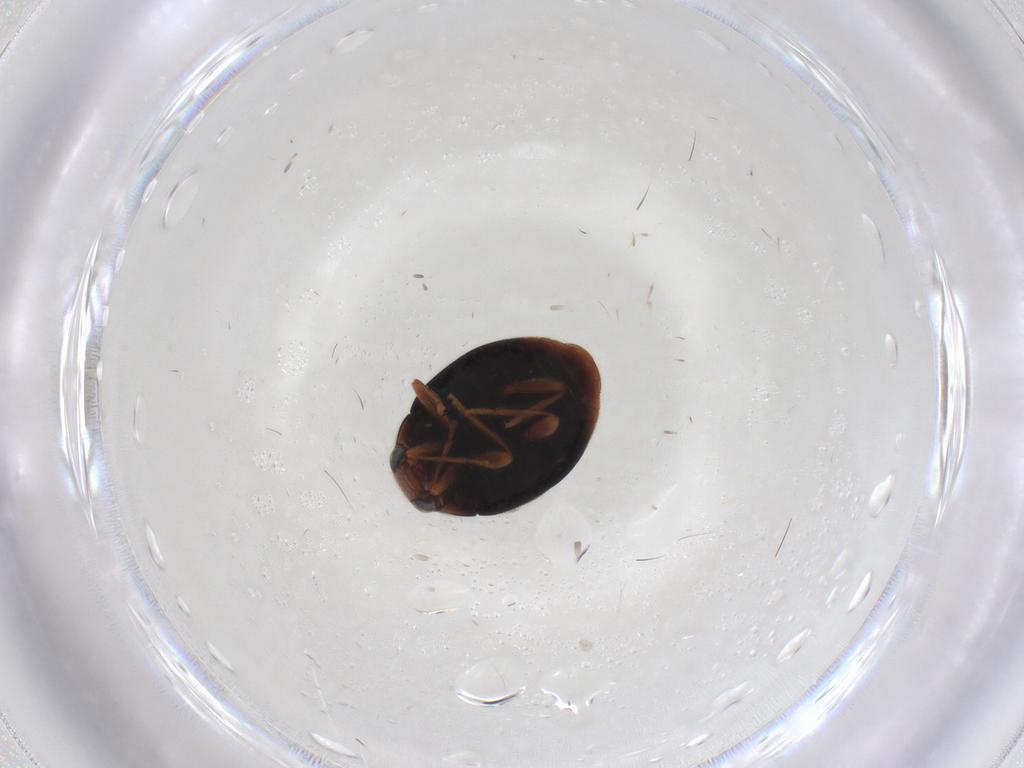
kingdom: Animalia
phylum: Arthropoda
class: Insecta
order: Coleoptera
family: Coccinellidae
